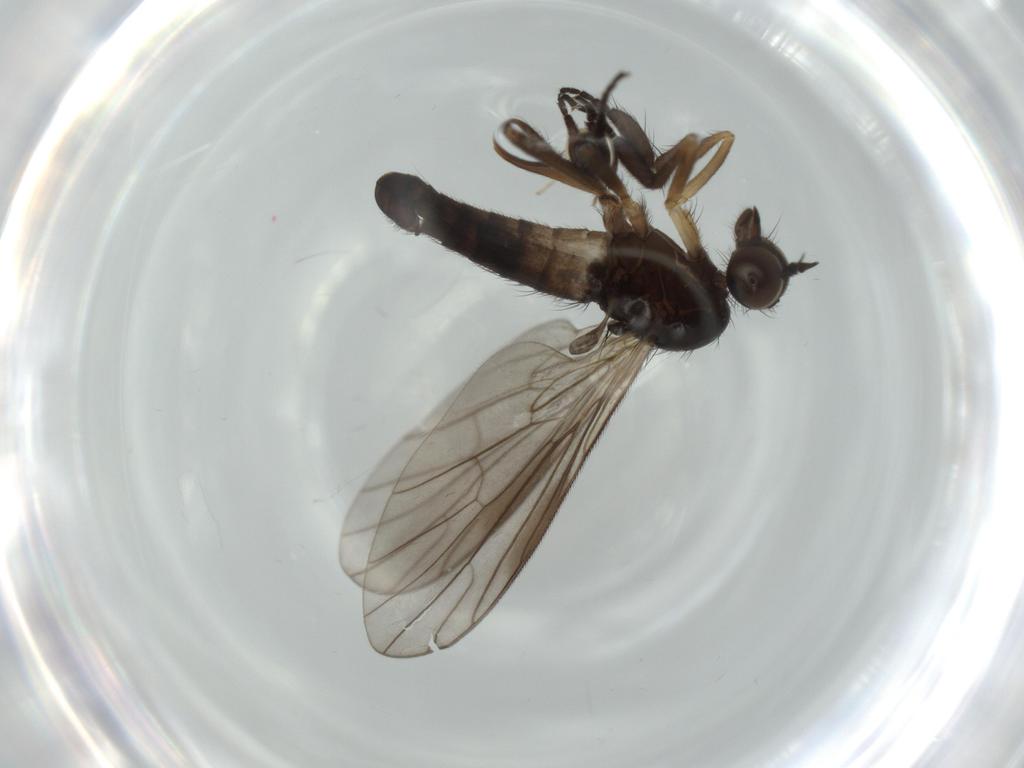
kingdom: Animalia
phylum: Arthropoda
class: Insecta
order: Diptera
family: Empididae
